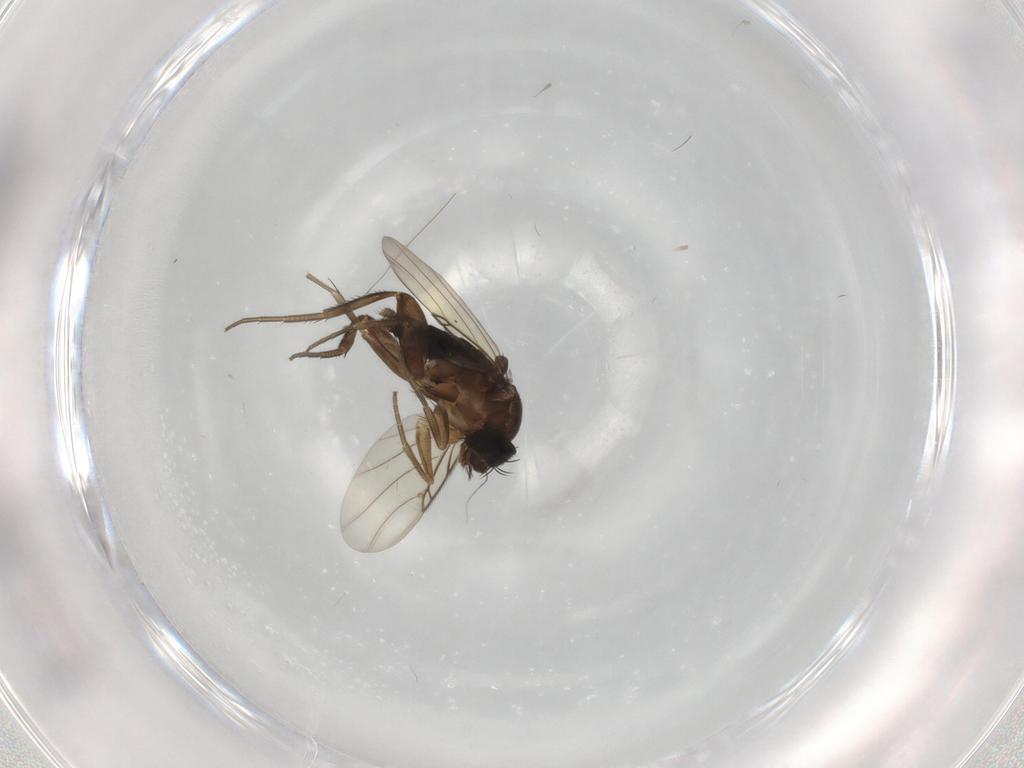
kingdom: Animalia
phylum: Arthropoda
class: Insecta
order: Diptera
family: Phoridae
